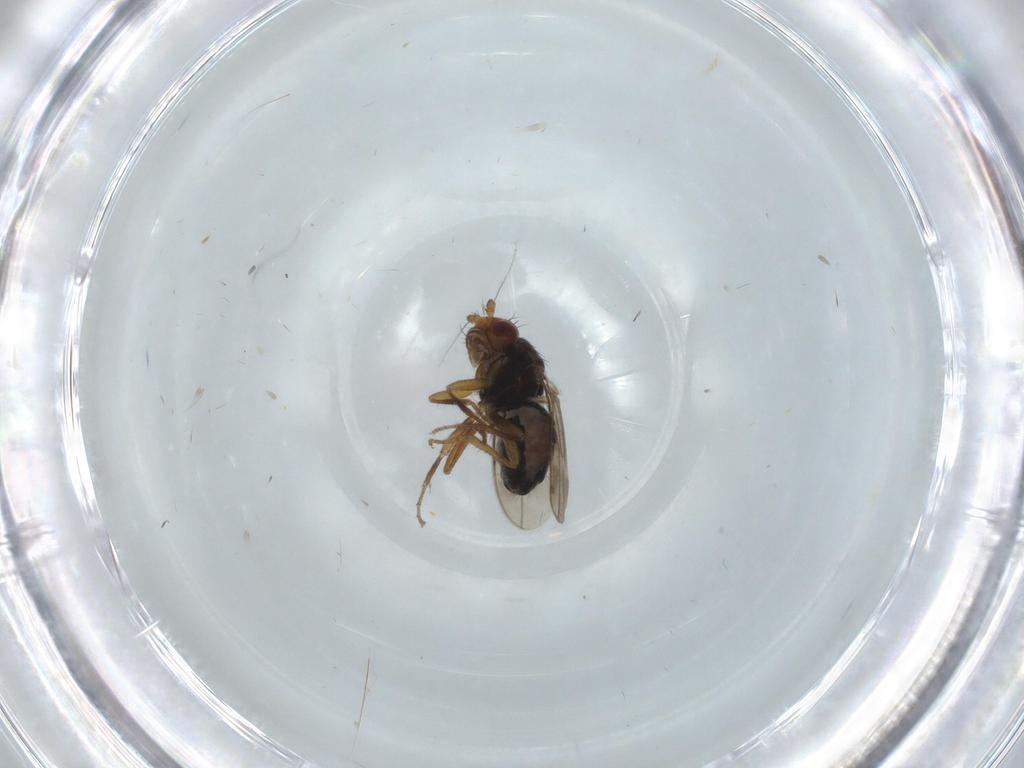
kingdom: Animalia
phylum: Arthropoda
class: Insecta
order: Diptera
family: Sphaeroceridae
